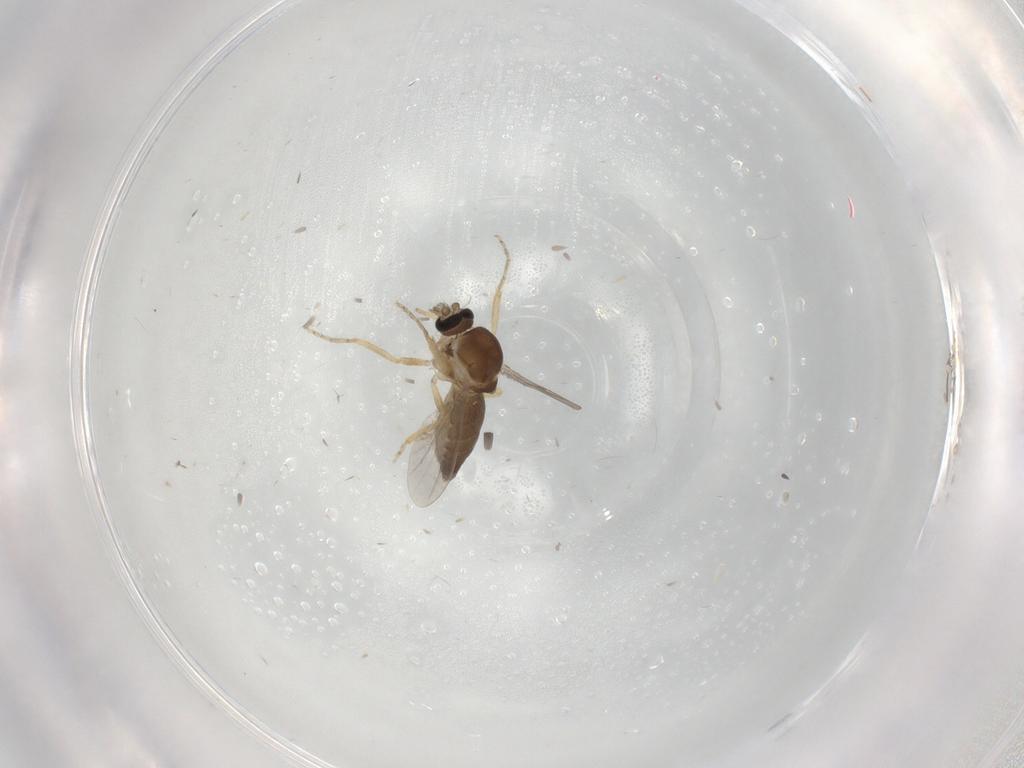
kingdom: Animalia
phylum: Arthropoda
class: Insecta
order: Diptera
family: Ceratopogonidae
